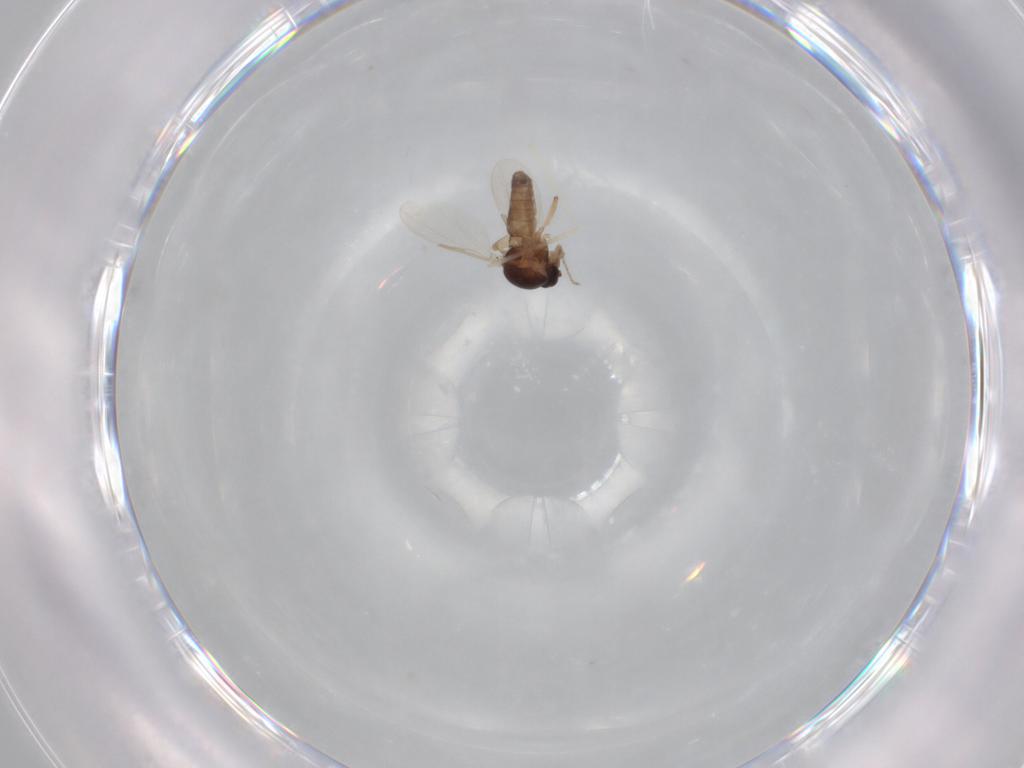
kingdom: Animalia
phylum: Arthropoda
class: Insecta
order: Diptera
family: Ceratopogonidae
